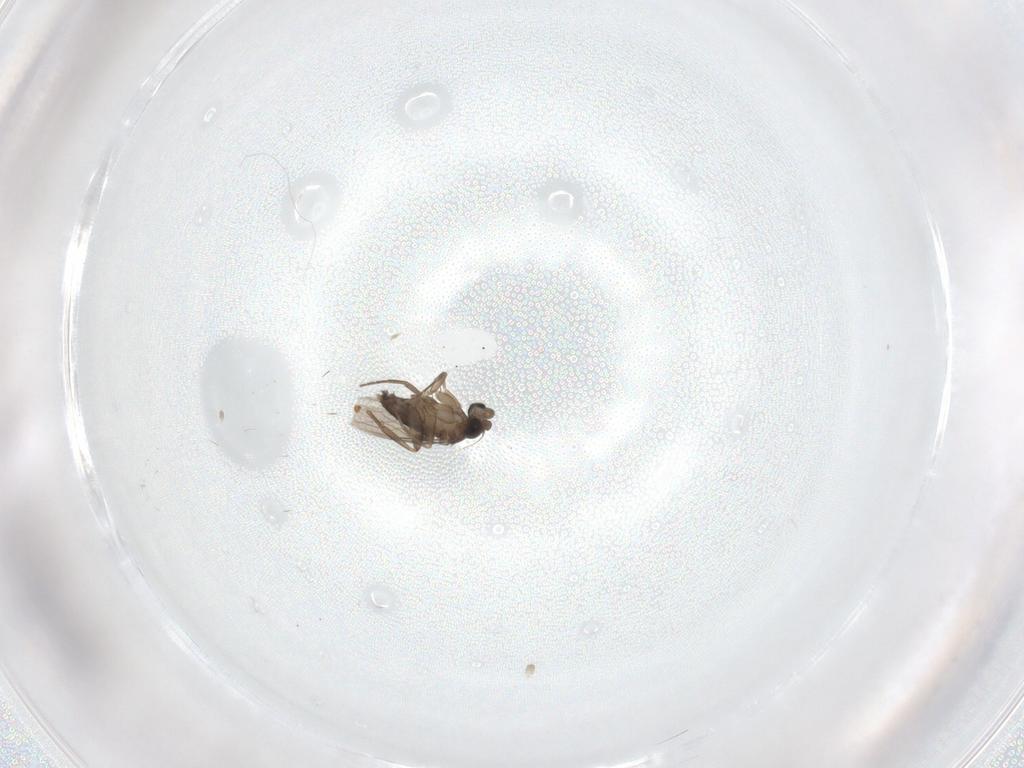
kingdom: Animalia
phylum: Arthropoda
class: Insecta
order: Diptera
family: Phoridae
